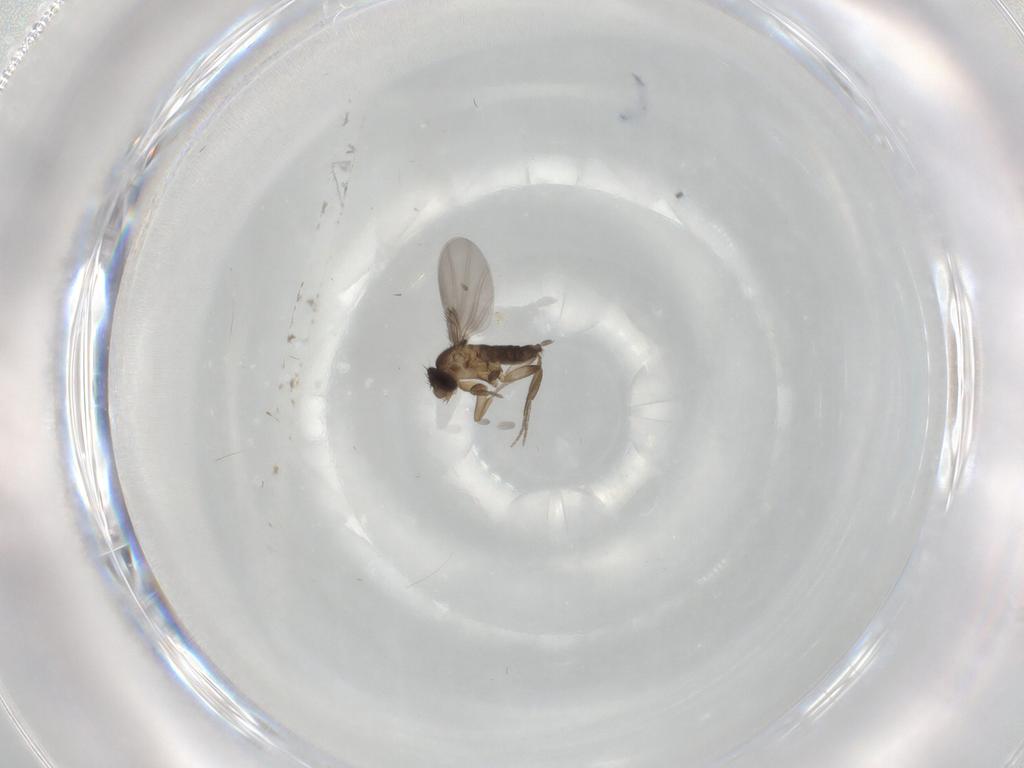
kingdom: Animalia
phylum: Arthropoda
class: Insecta
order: Diptera
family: Phoridae
